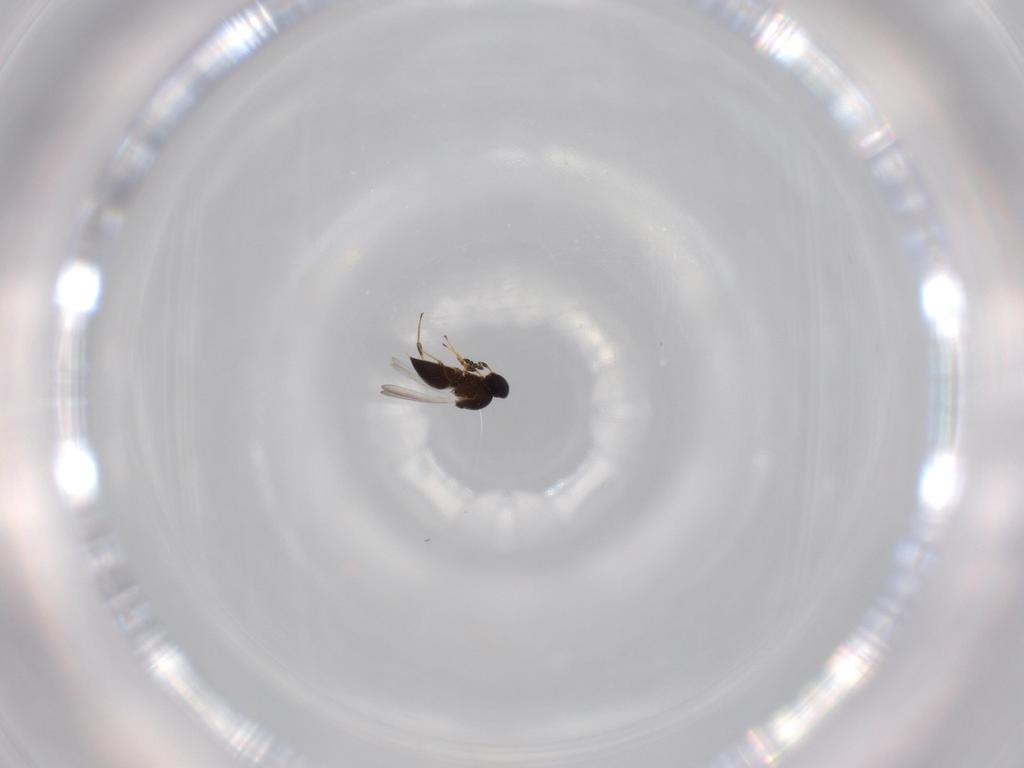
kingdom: Animalia
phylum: Arthropoda
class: Insecta
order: Hymenoptera
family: Platygastridae
